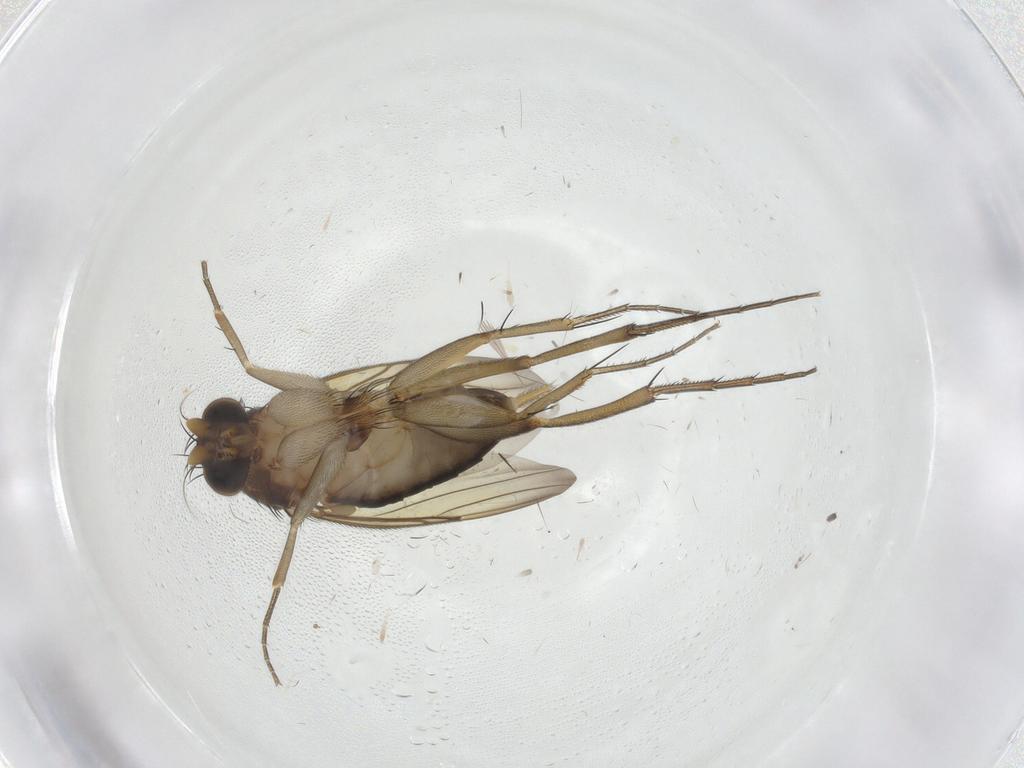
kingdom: Animalia
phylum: Arthropoda
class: Insecta
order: Diptera
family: Phoridae
